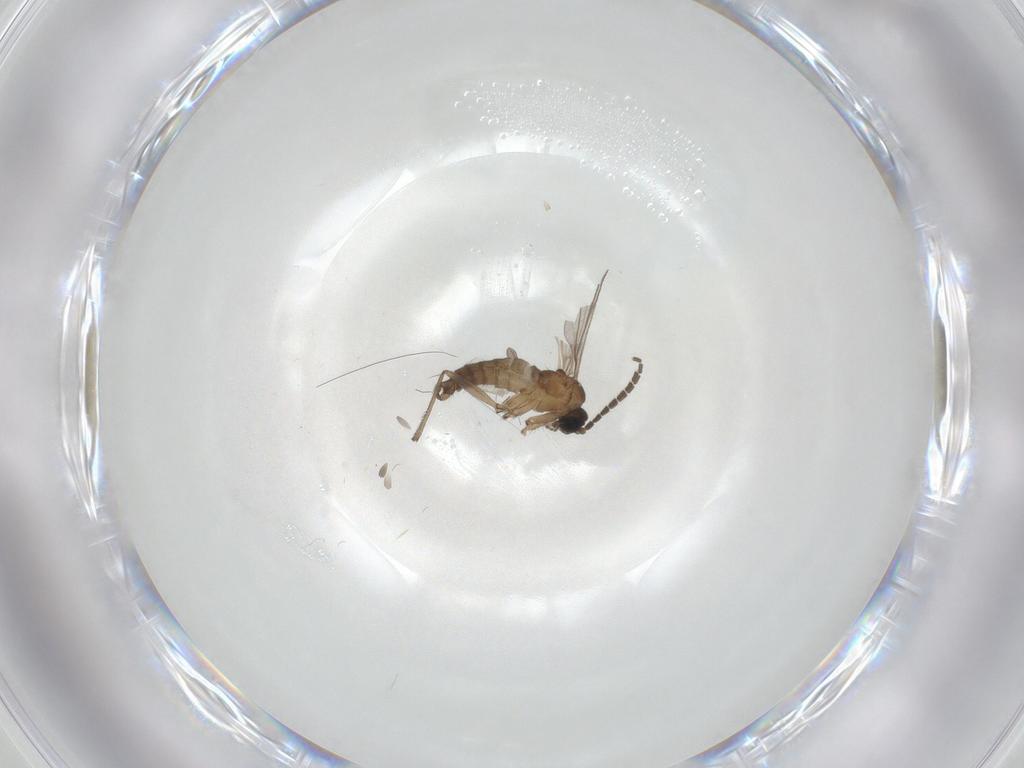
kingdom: Animalia
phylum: Arthropoda
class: Insecta
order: Diptera
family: Sciaridae
